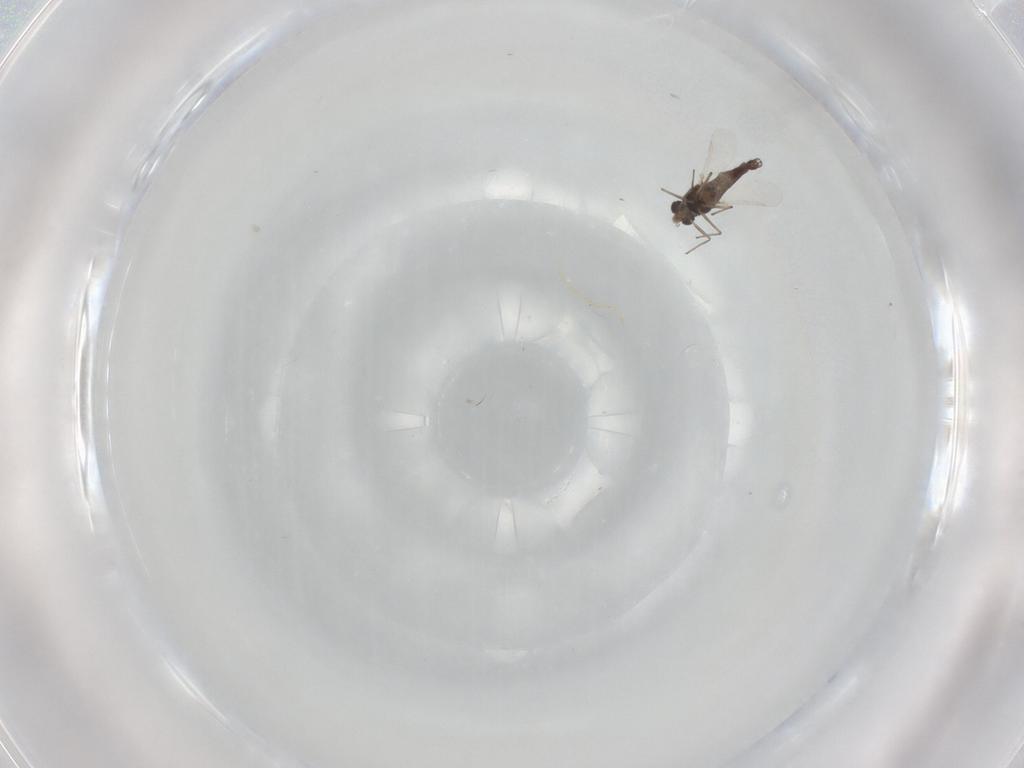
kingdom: Animalia
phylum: Arthropoda
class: Insecta
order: Diptera
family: Chironomidae
